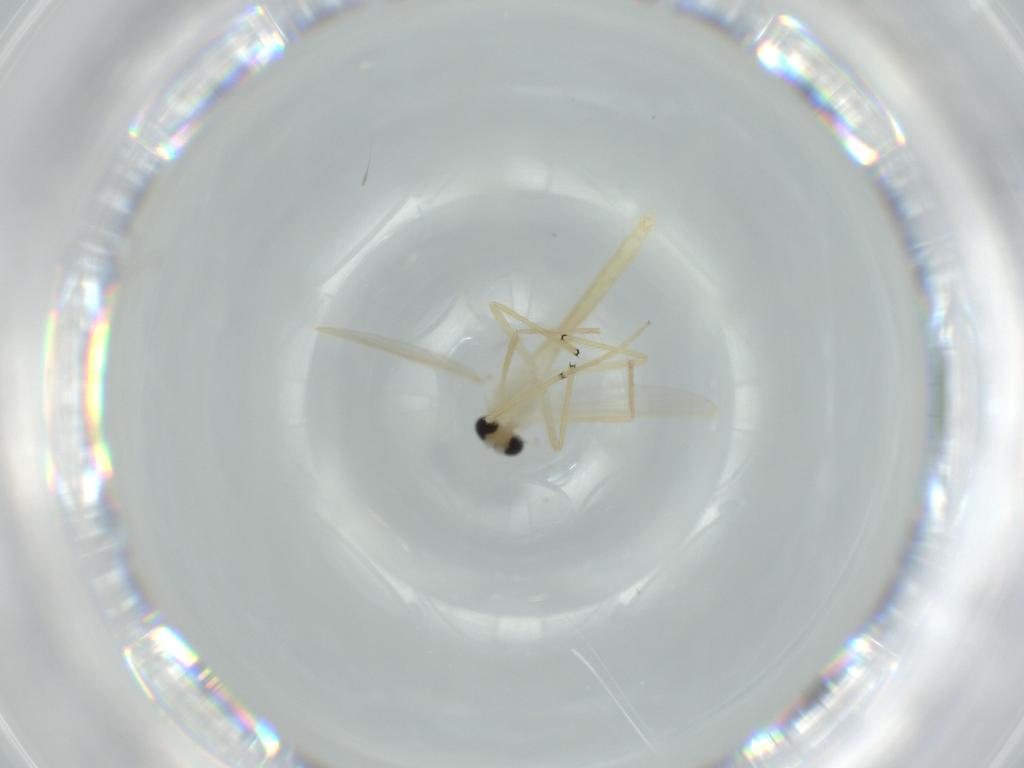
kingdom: Animalia
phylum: Arthropoda
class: Insecta
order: Diptera
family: Chironomidae
